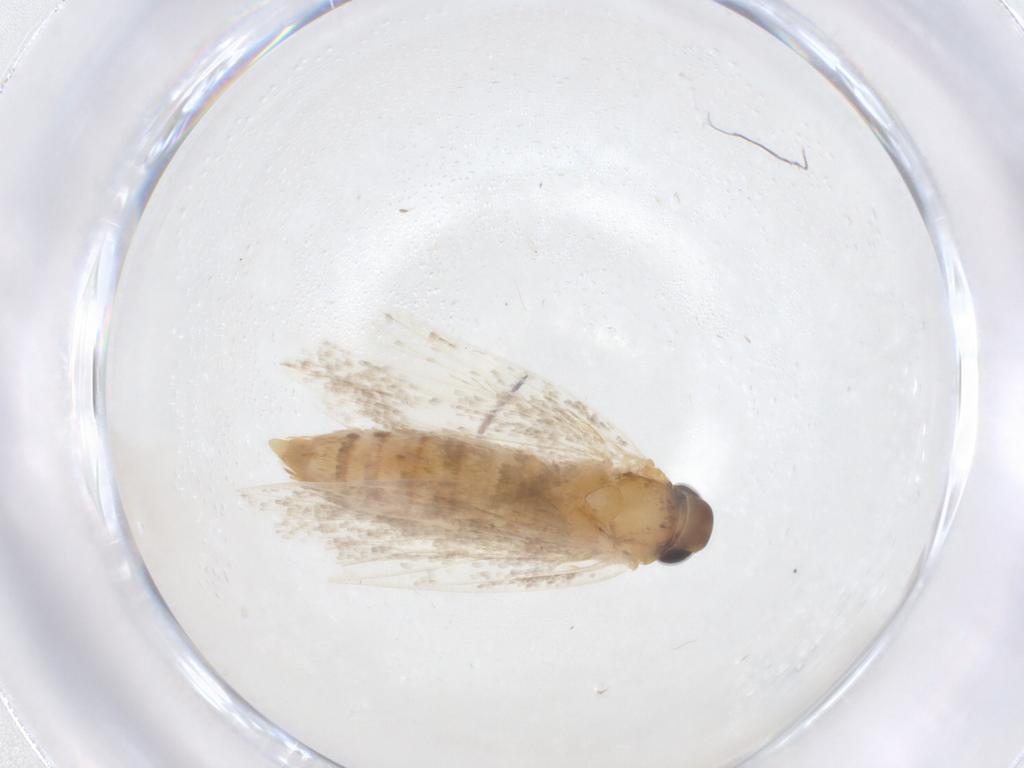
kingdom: Animalia
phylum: Arthropoda
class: Insecta
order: Lepidoptera
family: Oecophoridae
